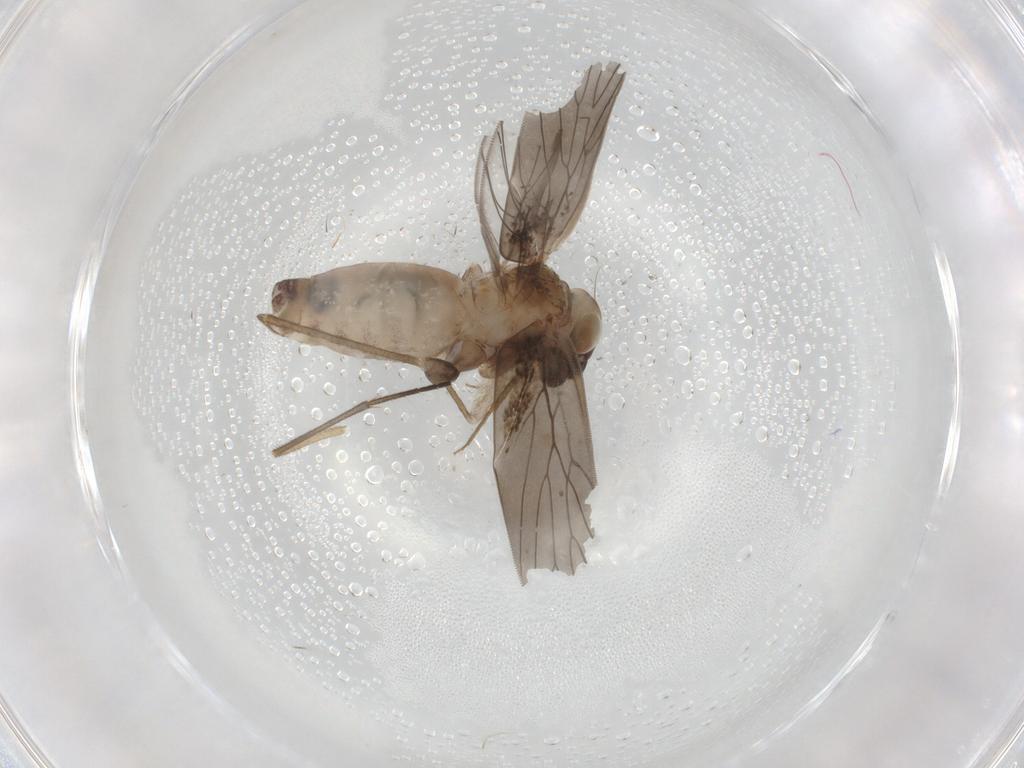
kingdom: Animalia
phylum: Arthropoda
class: Insecta
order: Psocodea
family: Lepidopsocidae
